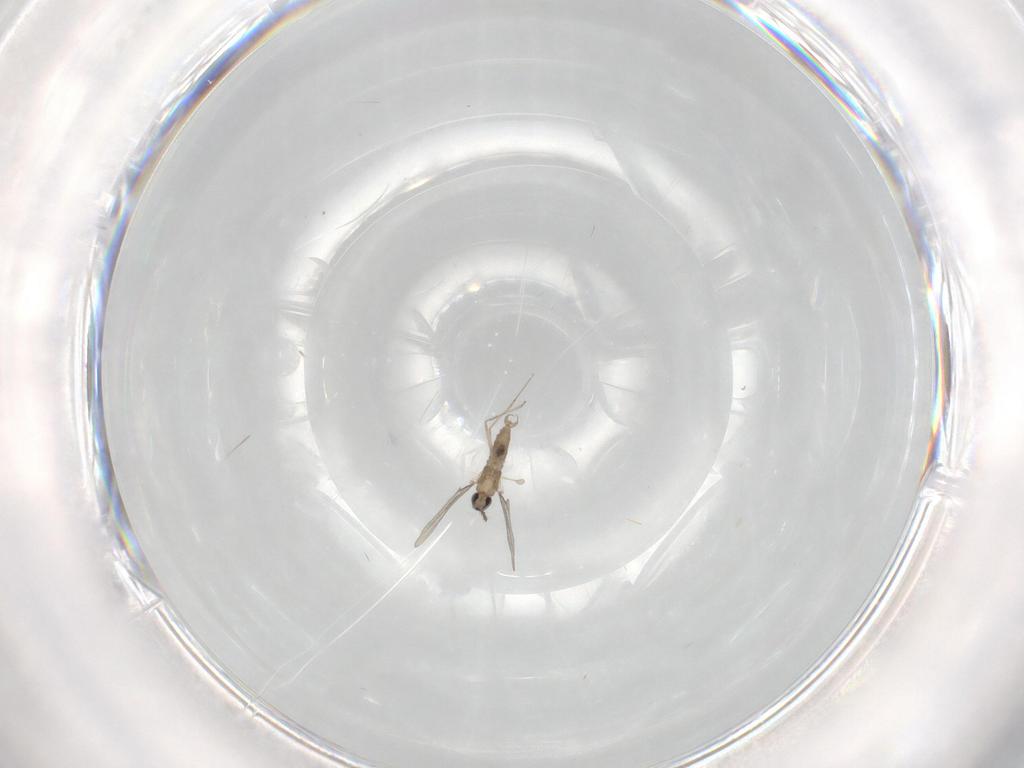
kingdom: Animalia
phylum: Arthropoda
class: Insecta
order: Diptera
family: Cecidomyiidae
